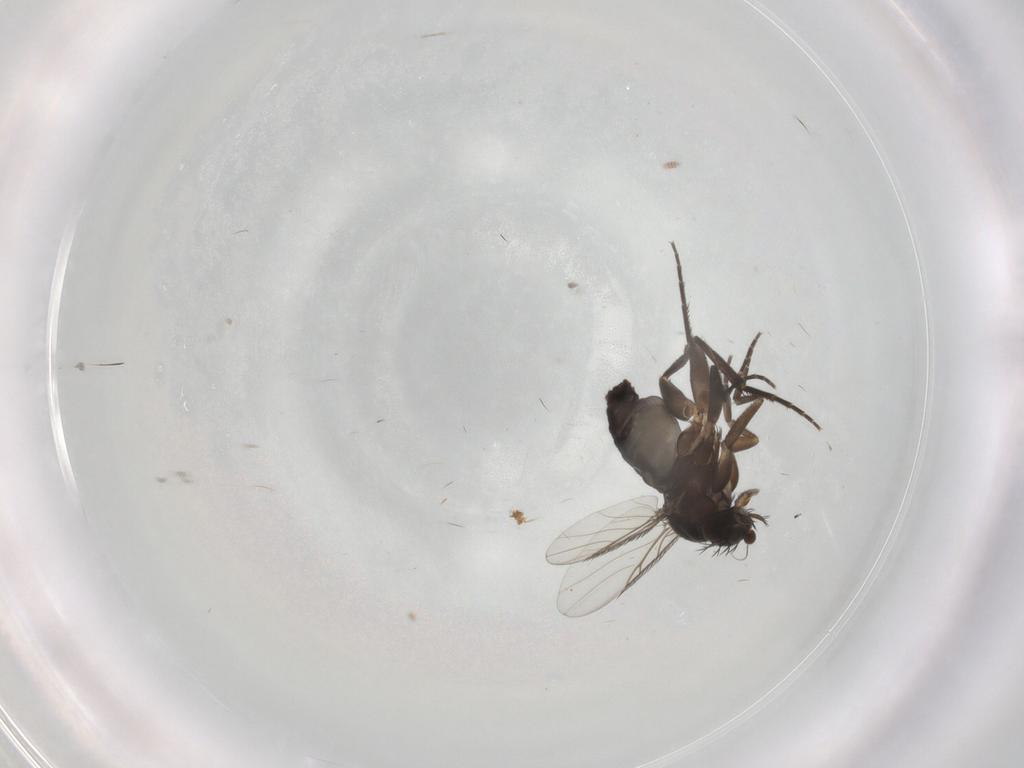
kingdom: Animalia
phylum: Arthropoda
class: Insecta
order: Diptera
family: Phoridae
